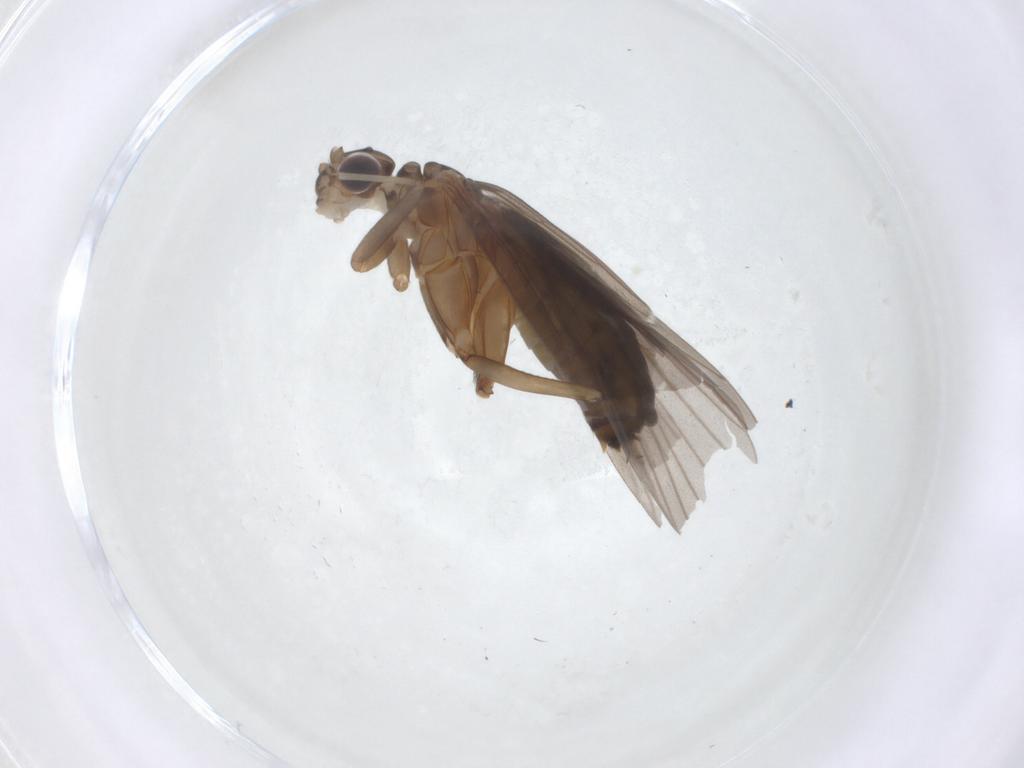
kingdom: Animalia
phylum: Arthropoda
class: Insecta
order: Trichoptera
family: Philopotamidae
